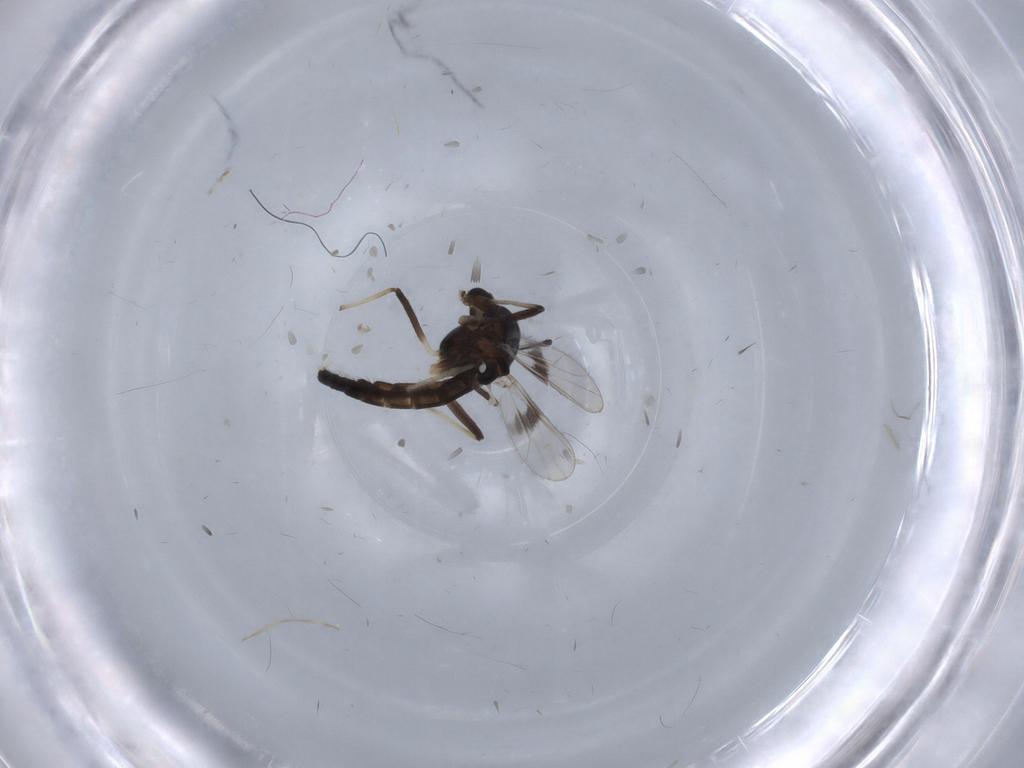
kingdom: Animalia
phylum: Arthropoda
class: Insecta
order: Diptera
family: Chironomidae
